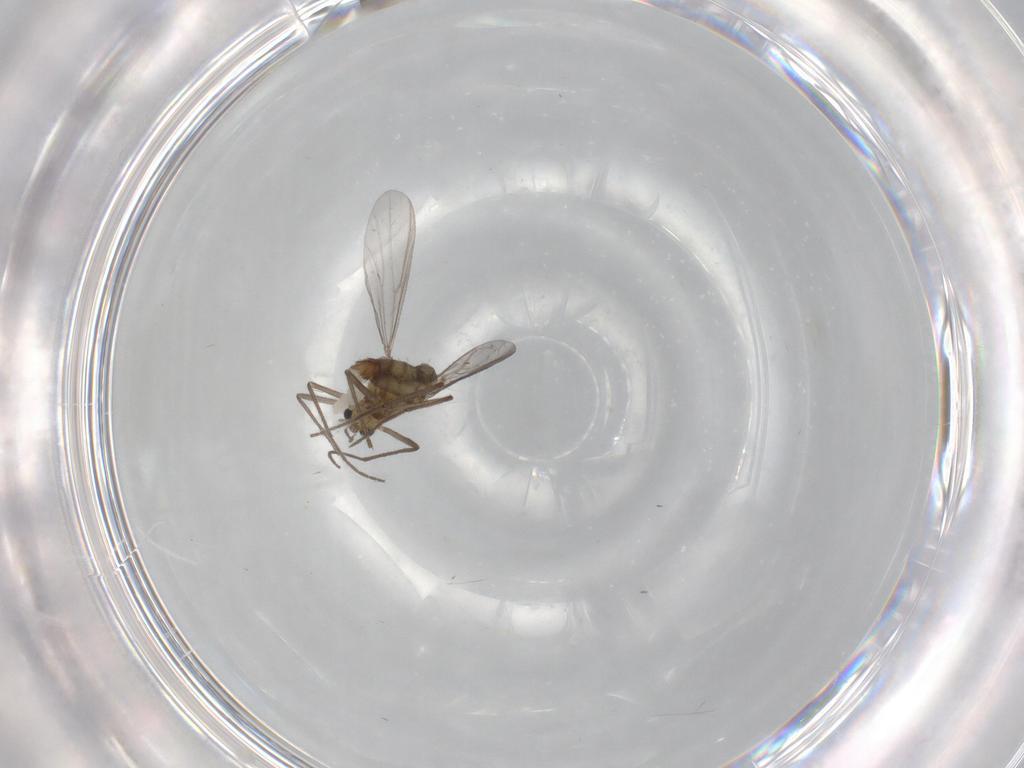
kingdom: Animalia
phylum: Arthropoda
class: Insecta
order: Diptera
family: Chironomidae
